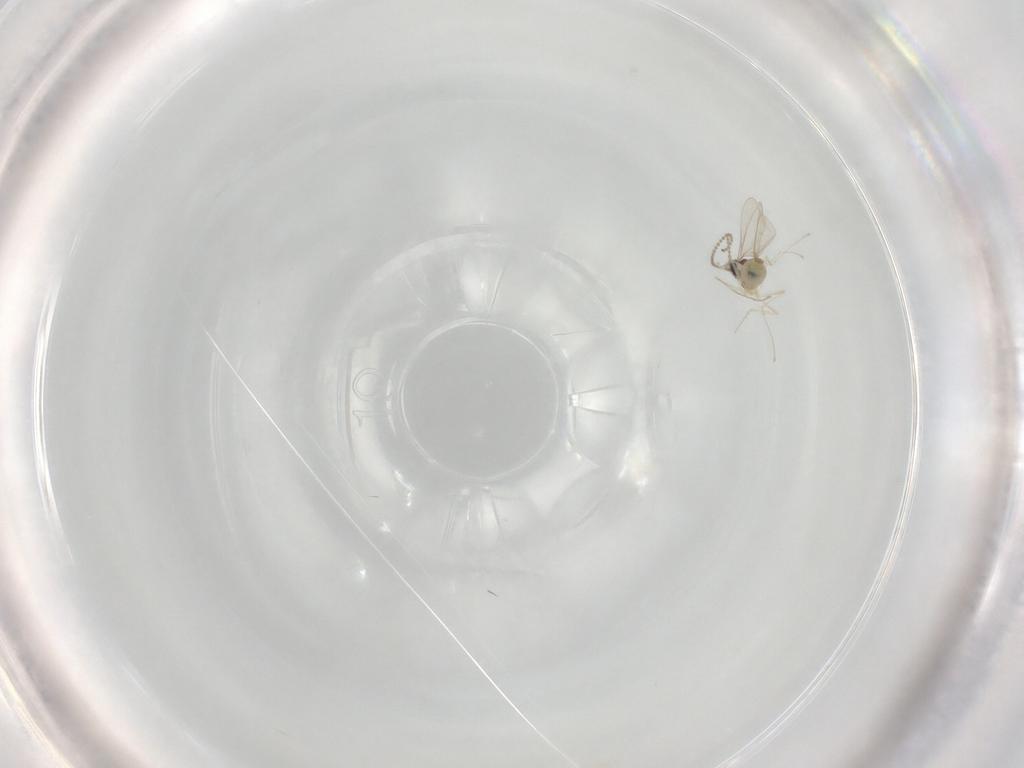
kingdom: Animalia
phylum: Arthropoda
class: Insecta
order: Diptera
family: Cecidomyiidae
